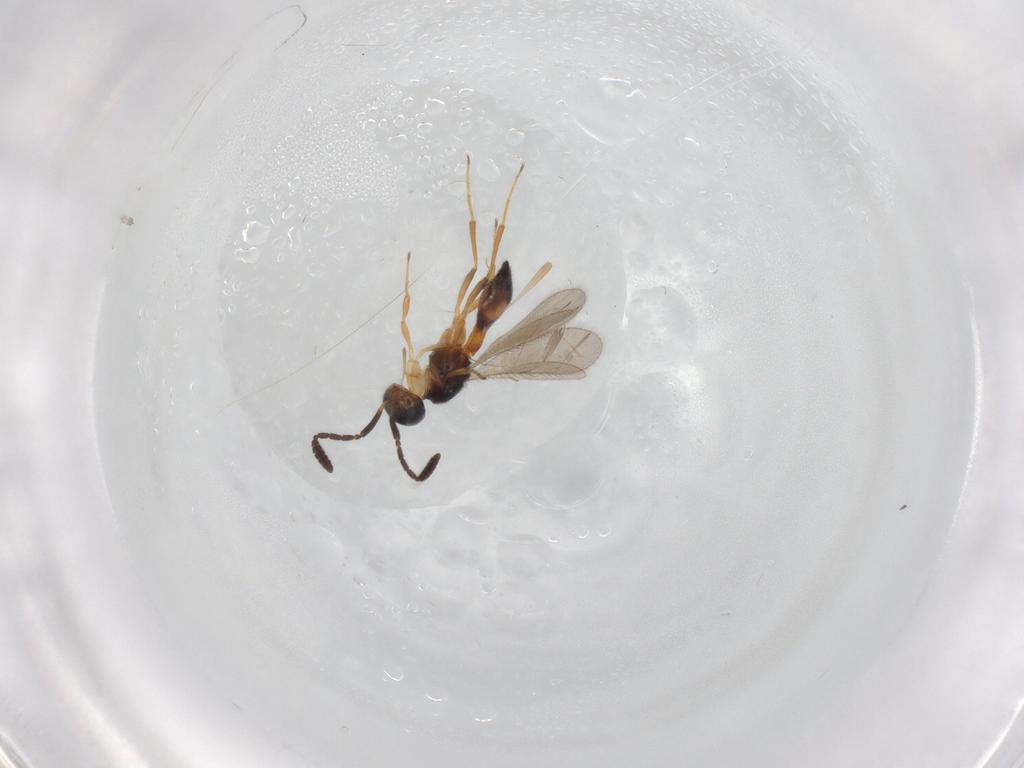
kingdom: Animalia
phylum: Arthropoda
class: Insecta
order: Hymenoptera
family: Scelionidae
